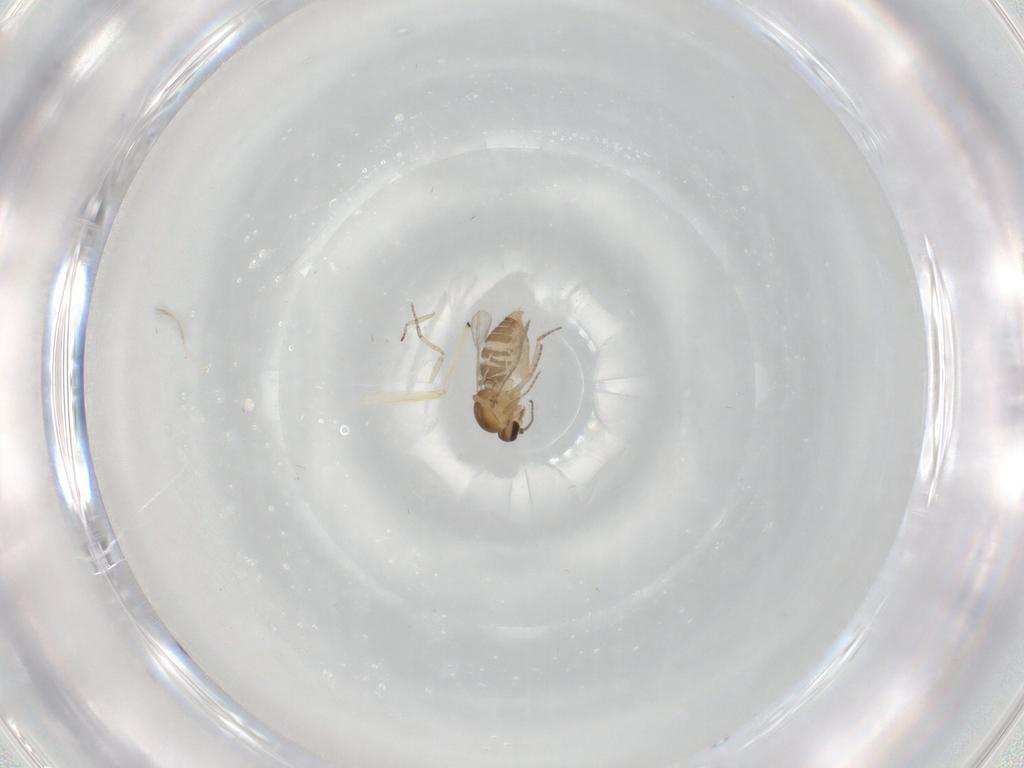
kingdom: Animalia
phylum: Arthropoda
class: Insecta
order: Diptera
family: Ceratopogonidae
